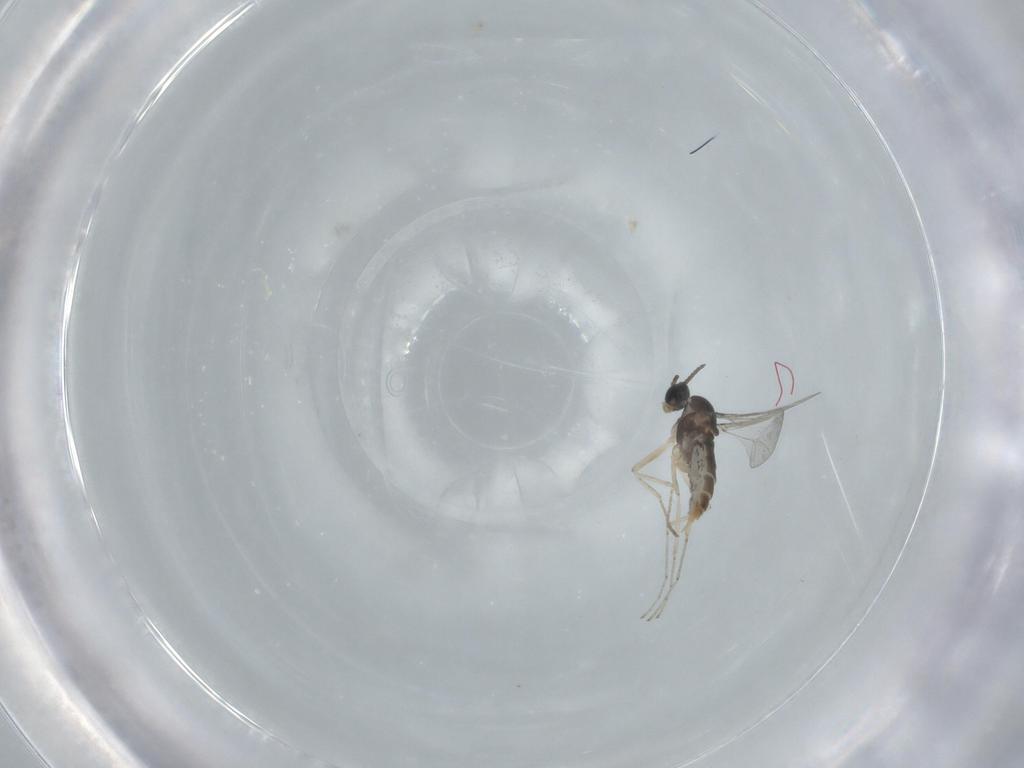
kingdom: Animalia
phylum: Arthropoda
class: Insecta
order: Diptera
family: Cecidomyiidae
